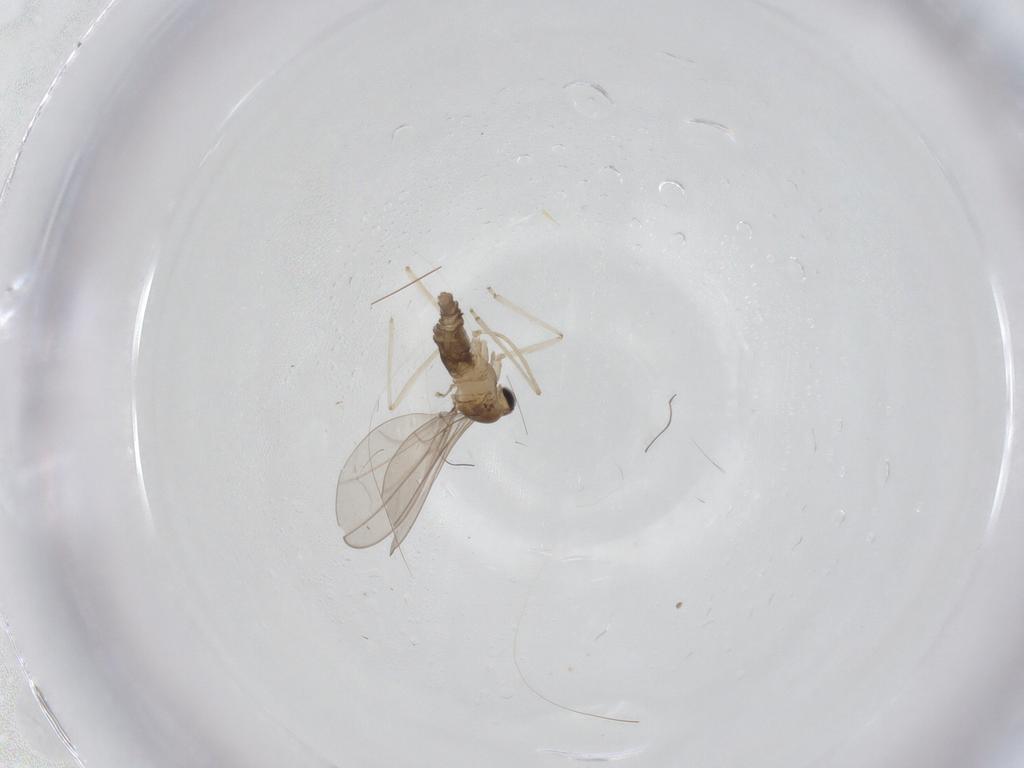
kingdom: Animalia
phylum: Arthropoda
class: Insecta
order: Diptera
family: Cecidomyiidae
